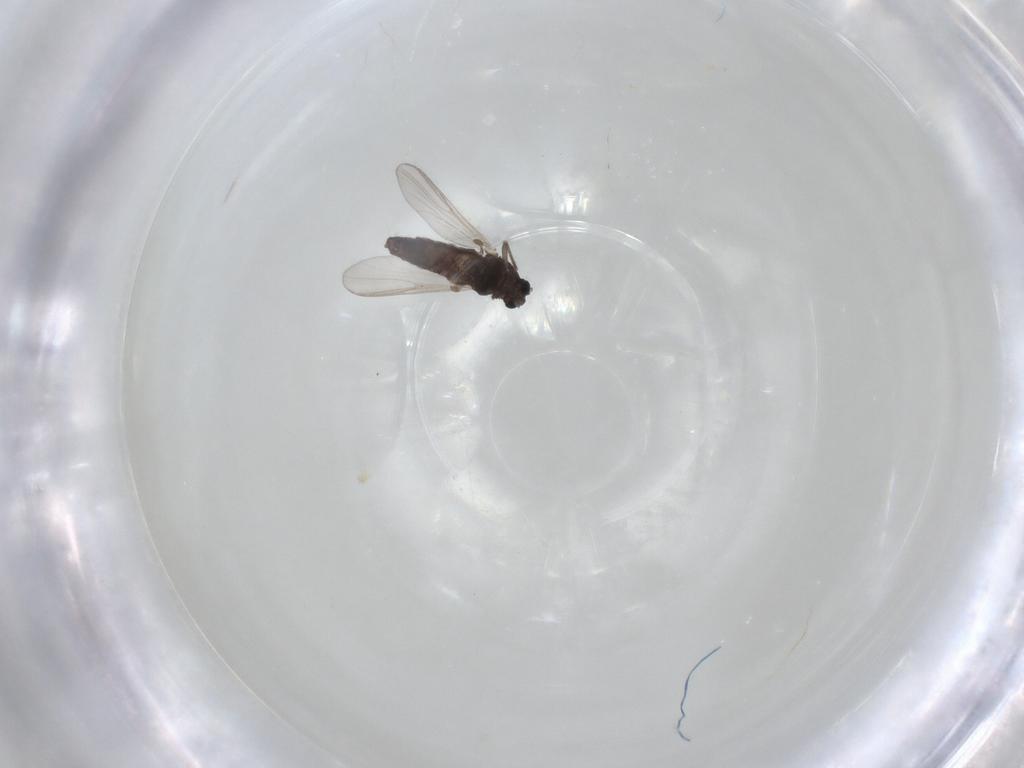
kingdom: Animalia
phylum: Arthropoda
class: Insecta
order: Diptera
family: Chironomidae
